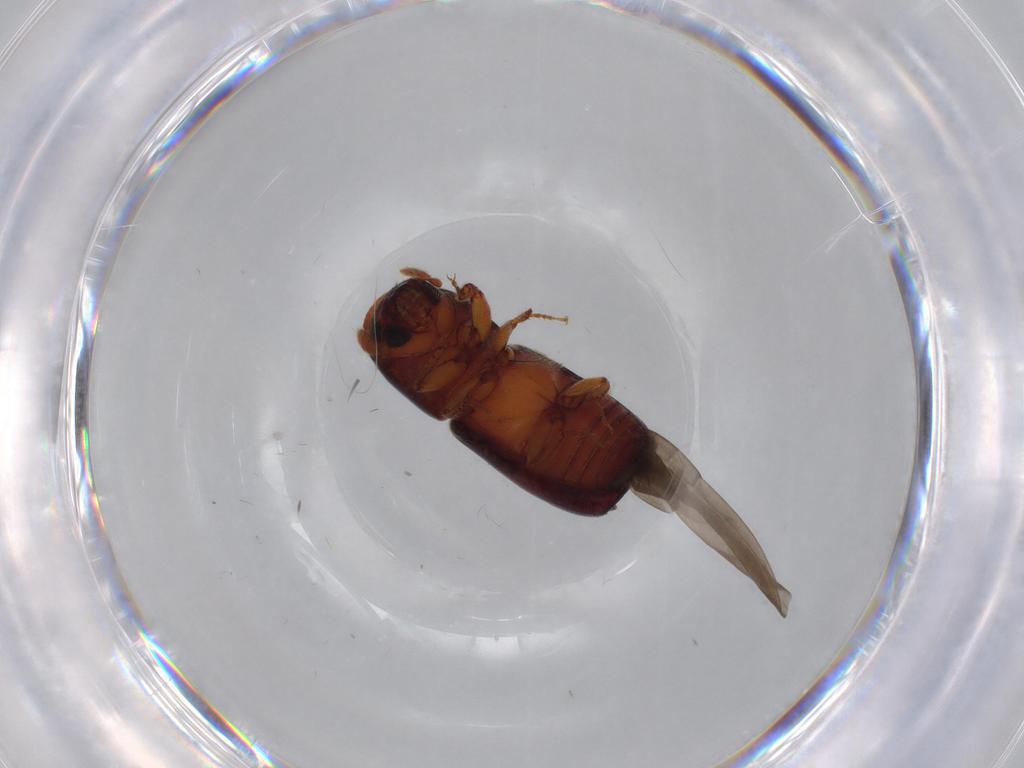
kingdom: Animalia
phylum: Arthropoda
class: Insecta
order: Coleoptera
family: Curculionidae
